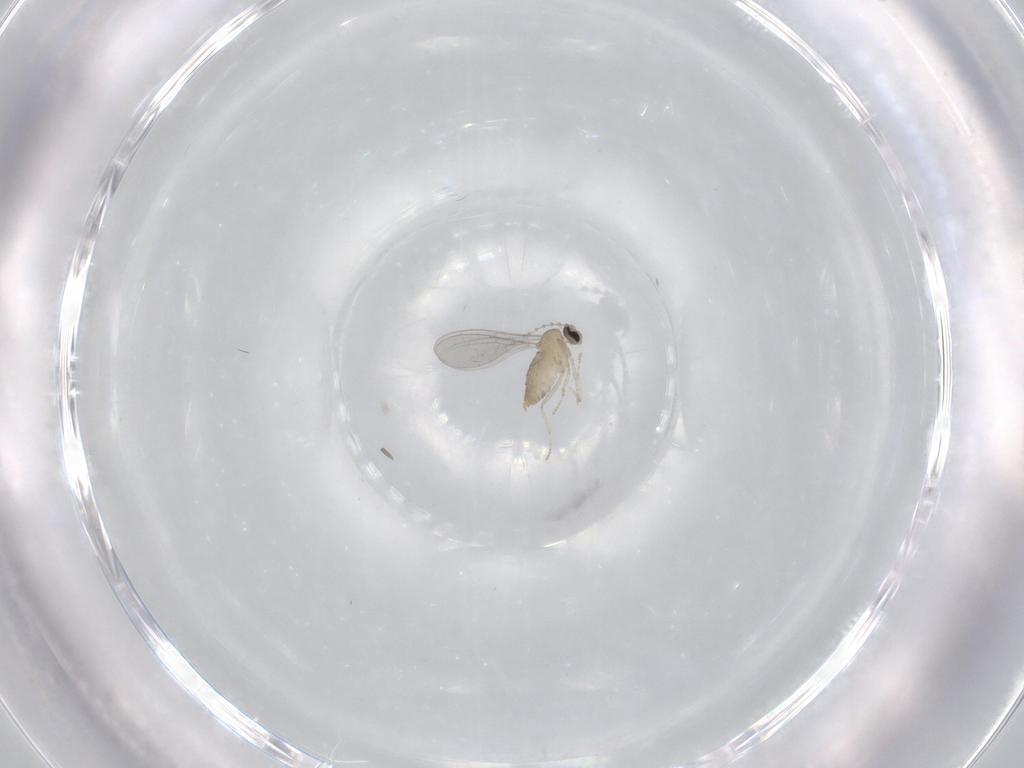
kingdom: Animalia
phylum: Arthropoda
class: Insecta
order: Diptera
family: Cecidomyiidae
